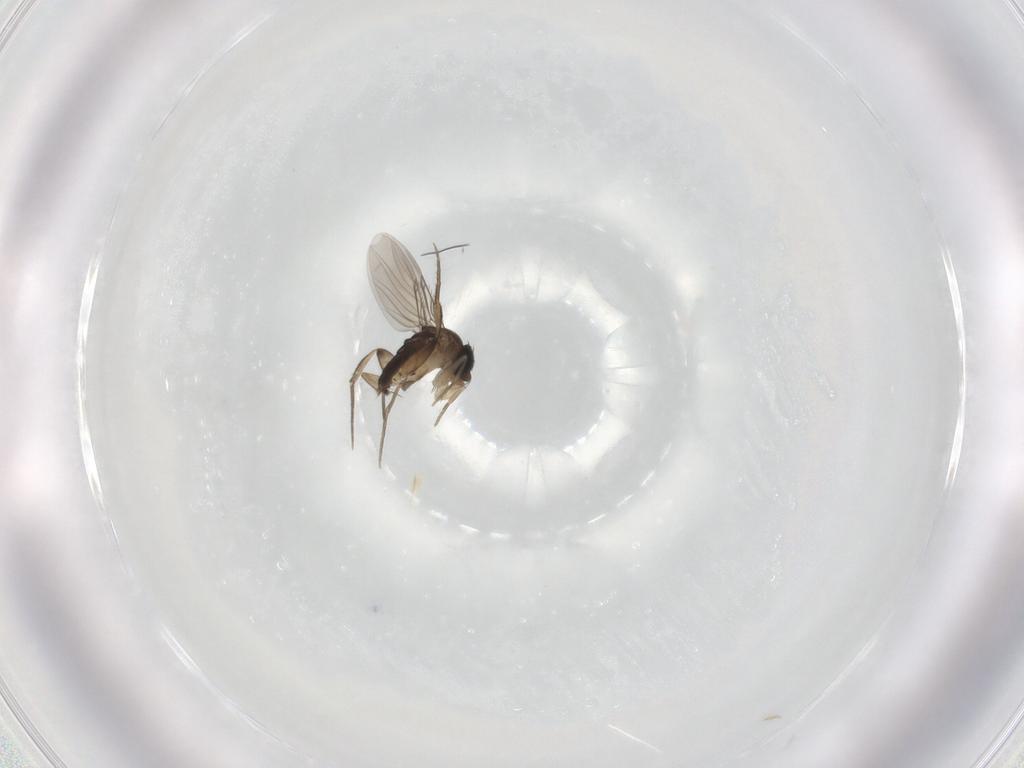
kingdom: Animalia
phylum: Arthropoda
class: Insecta
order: Diptera
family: Phoridae
